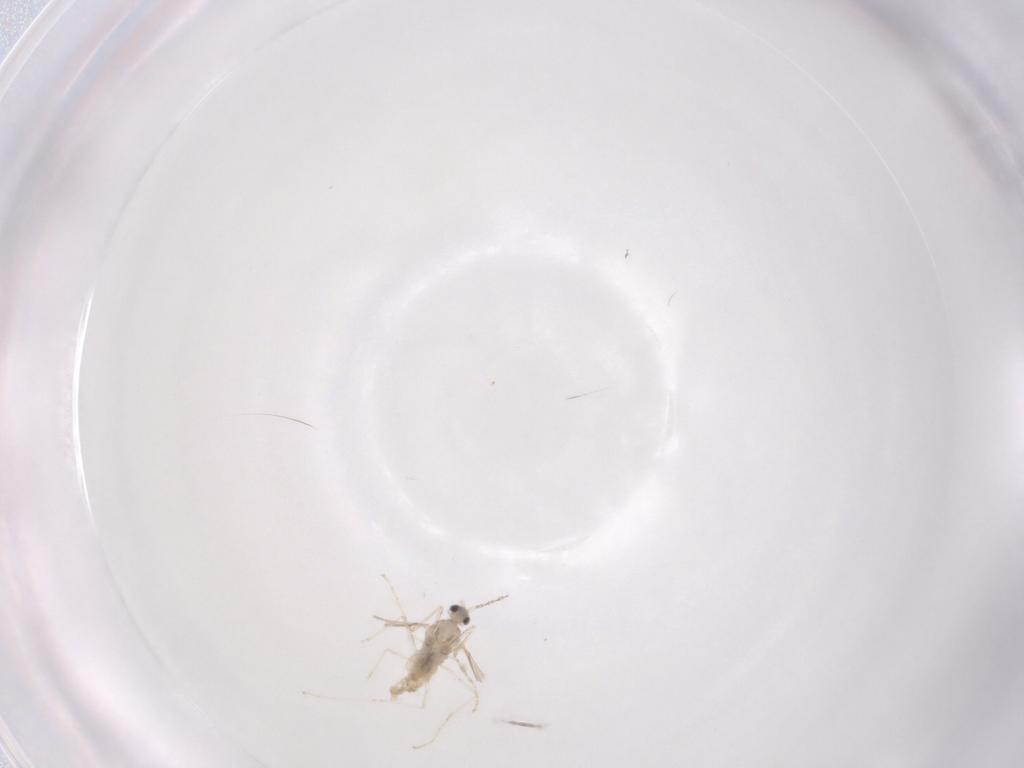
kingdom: Animalia
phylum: Arthropoda
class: Insecta
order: Diptera
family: Cecidomyiidae
